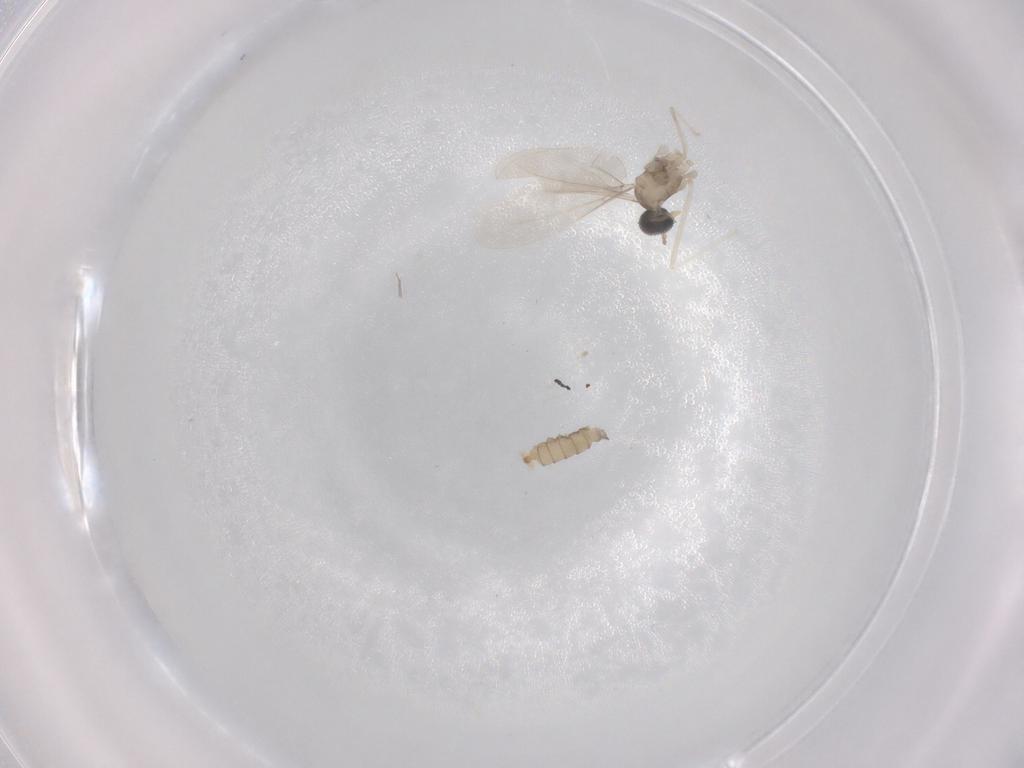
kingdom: Animalia
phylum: Arthropoda
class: Insecta
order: Diptera
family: Cecidomyiidae
